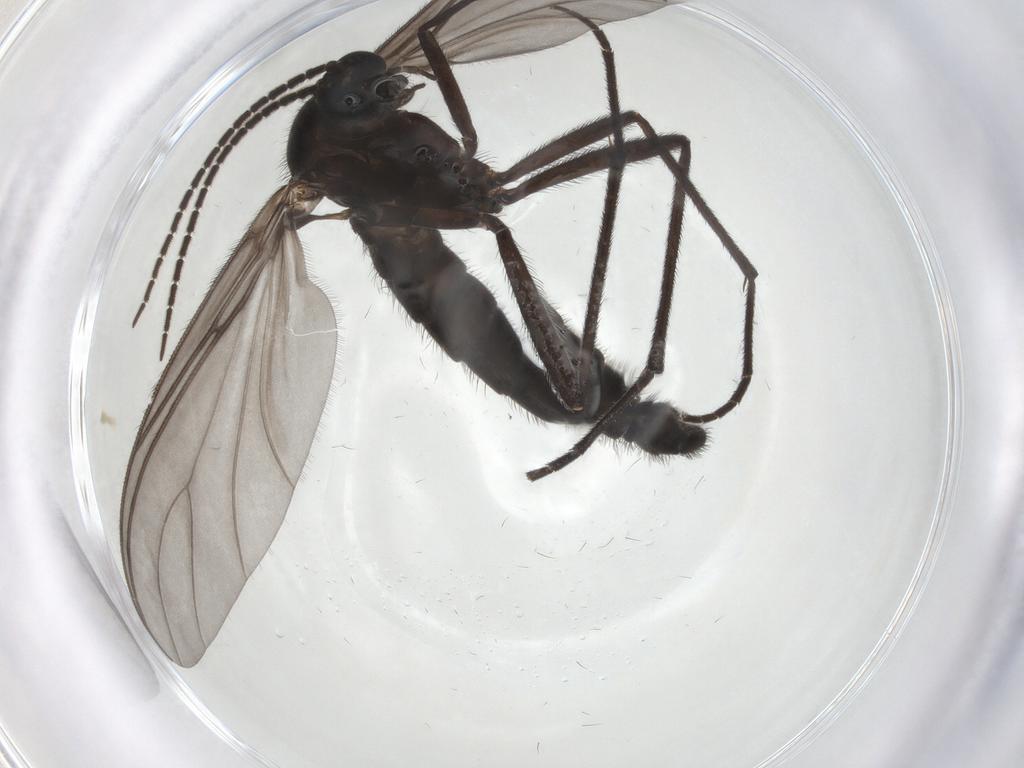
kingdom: Animalia
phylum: Arthropoda
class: Insecta
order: Diptera
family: Sciaridae
